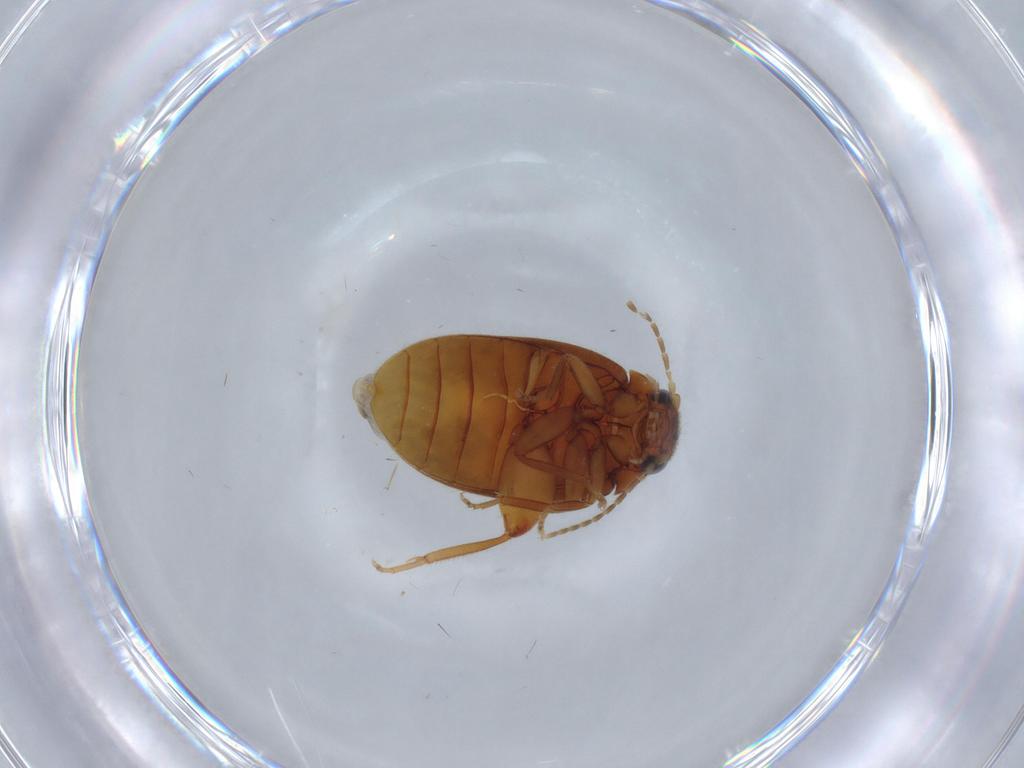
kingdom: Animalia
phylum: Arthropoda
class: Insecta
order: Coleoptera
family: Scirtidae
